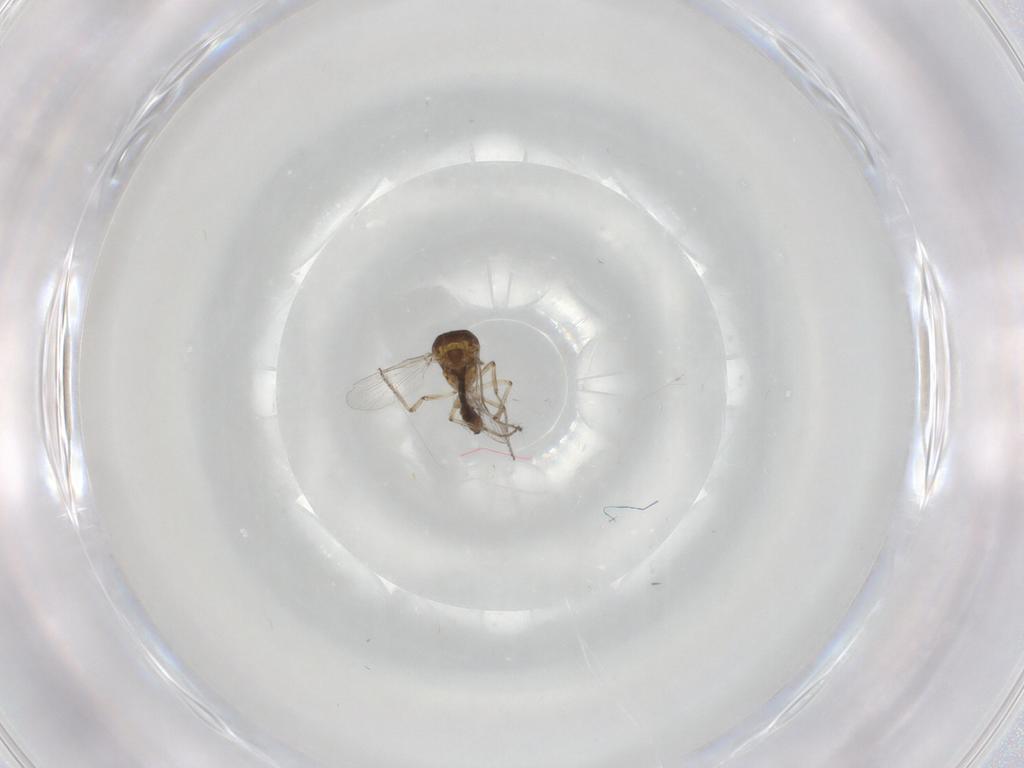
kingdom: Animalia
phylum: Arthropoda
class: Insecta
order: Diptera
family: Ceratopogonidae
